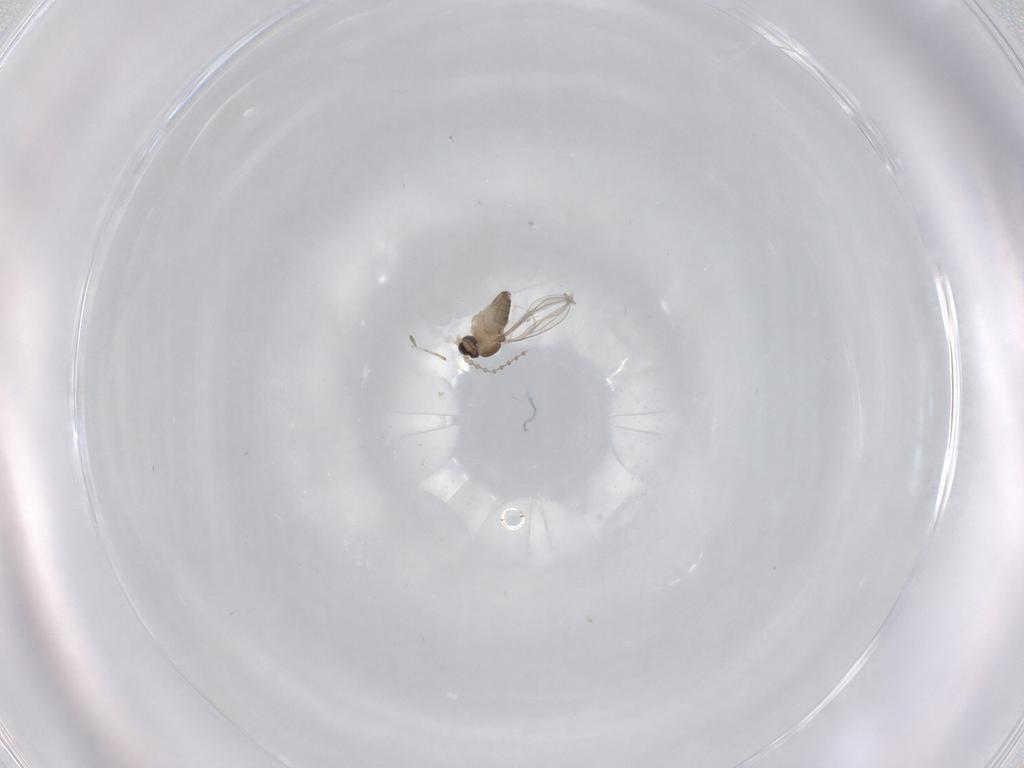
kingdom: Animalia
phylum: Arthropoda
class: Insecta
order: Diptera
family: Cecidomyiidae
